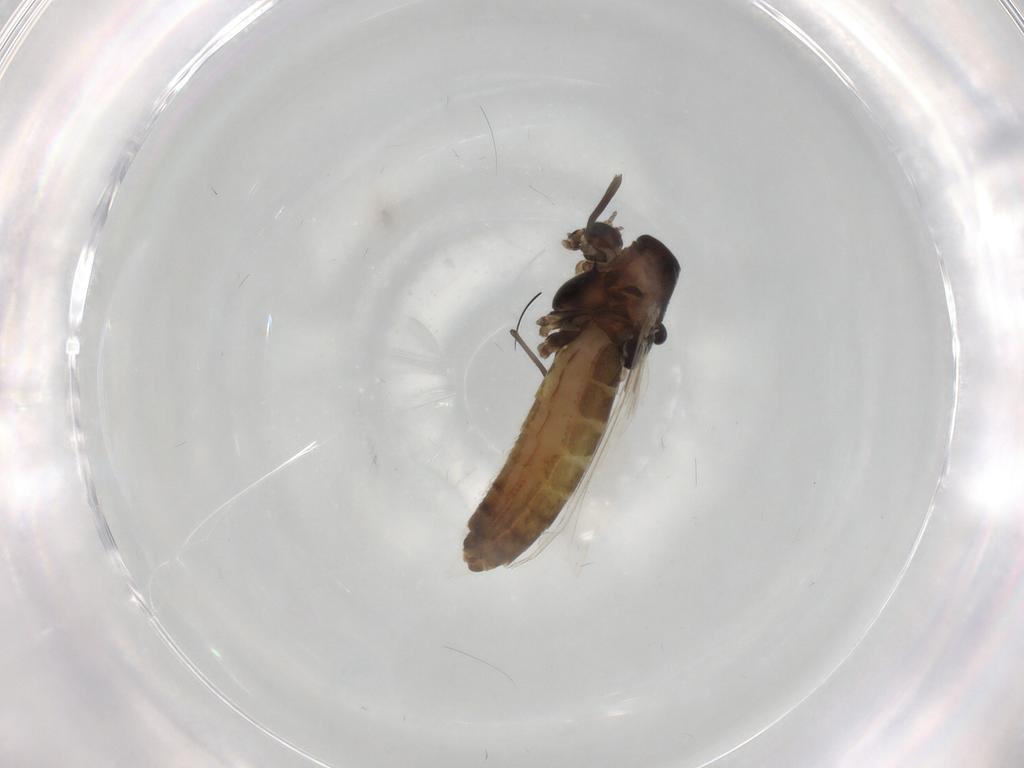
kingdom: Animalia
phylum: Arthropoda
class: Insecta
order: Diptera
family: Chironomidae
